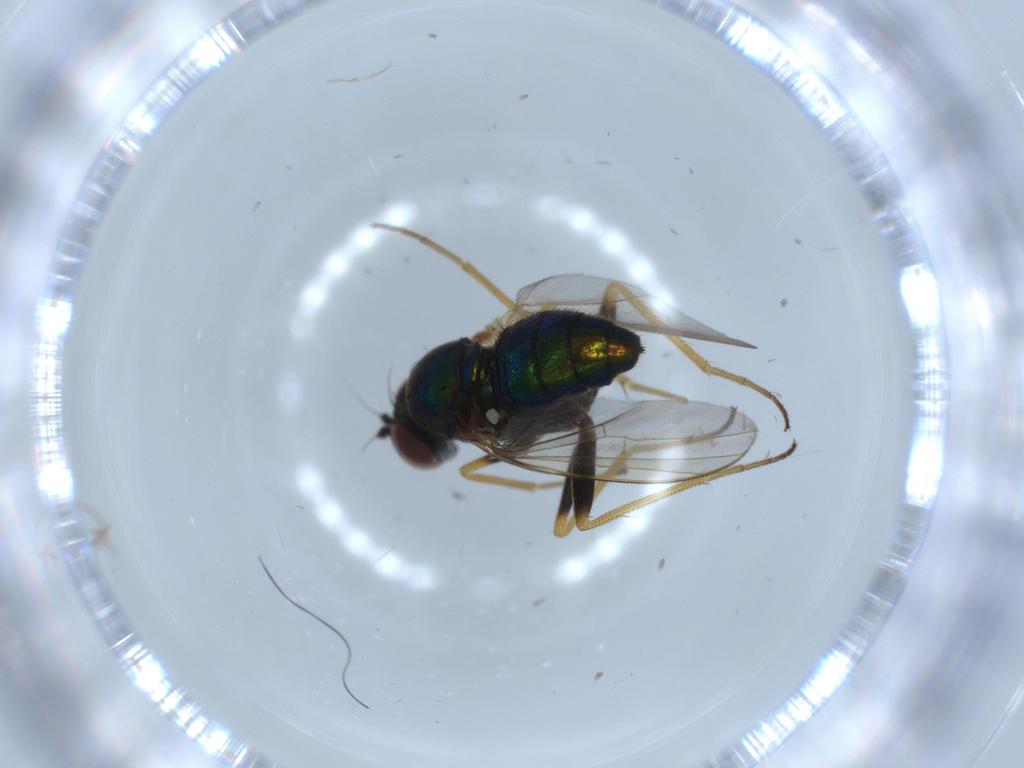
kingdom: Animalia
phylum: Arthropoda
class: Insecta
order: Diptera
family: Dolichopodidae
